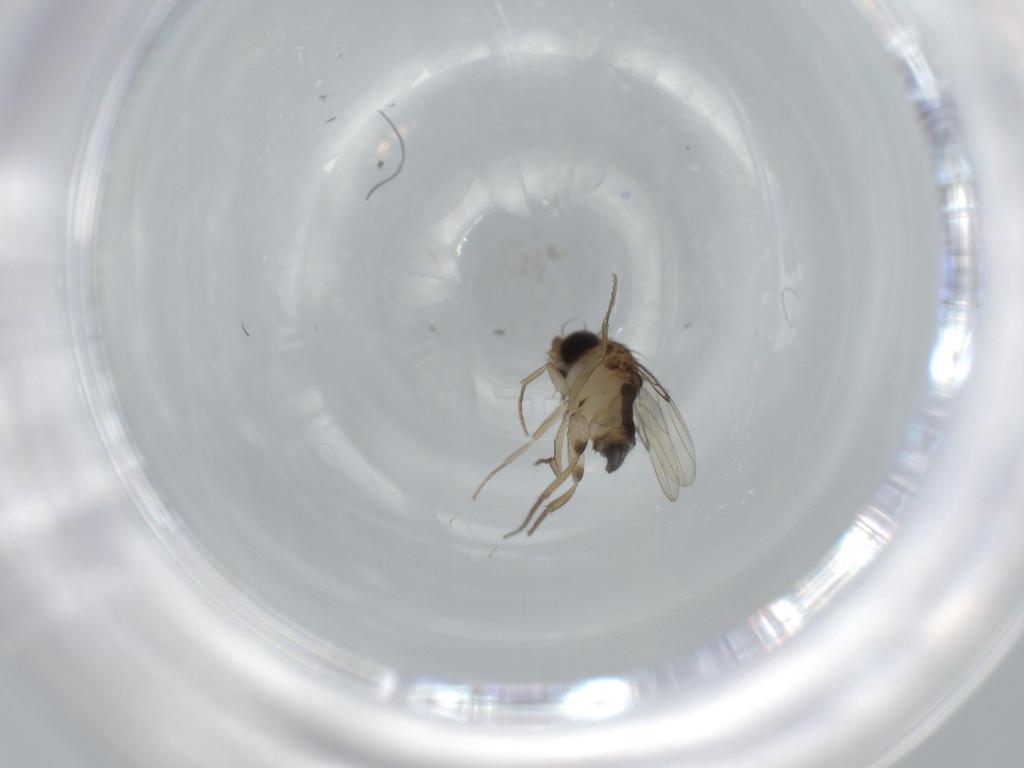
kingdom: Animalia
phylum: Arthropoda
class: Insecta
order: Diptera
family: Phoridae
